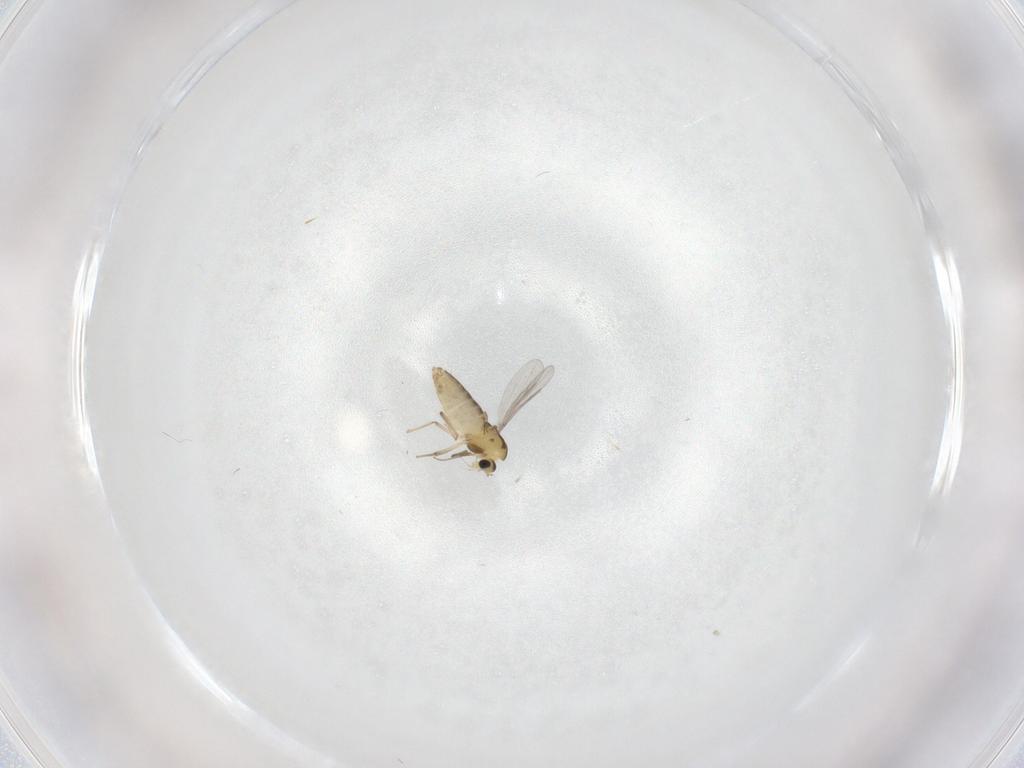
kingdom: Animalia
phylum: Arthropoda
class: Insecta
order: Diptera
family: Chironomidae
